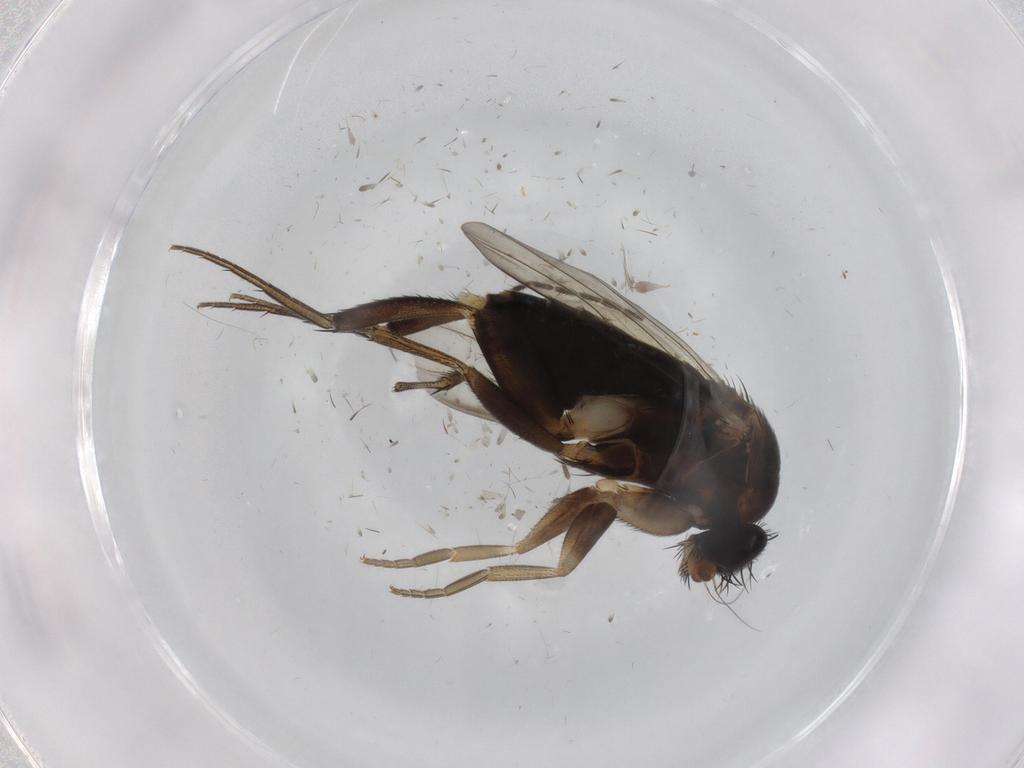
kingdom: Animalia
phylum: Arthropoda
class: Insecta
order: Diptera
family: Phoridae
